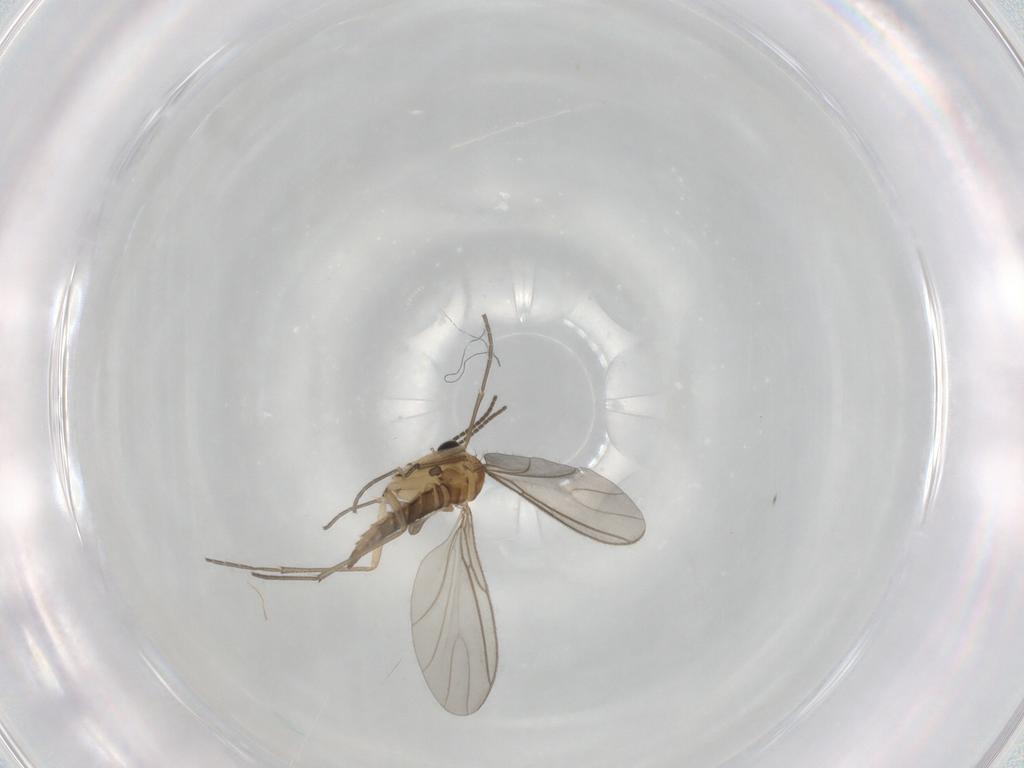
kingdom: Animalia
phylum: Arthropoda
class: Insecta
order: Diptera
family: Sciaridae
